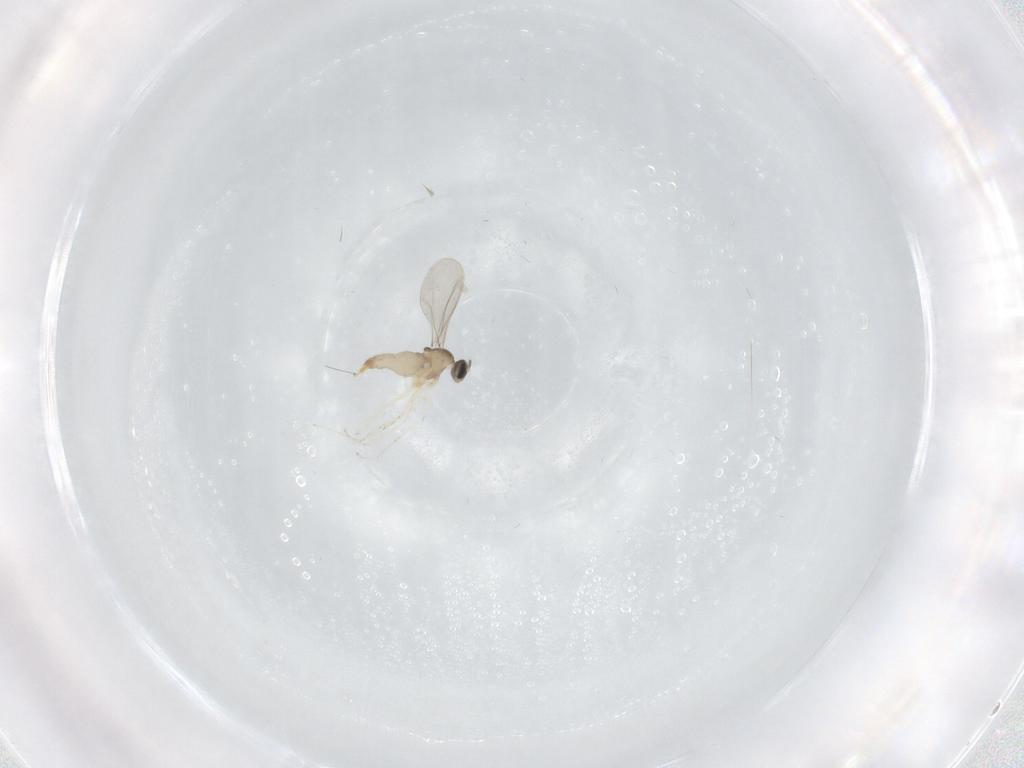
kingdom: Animalia
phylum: Arthropoda
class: Insecta
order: Diptera
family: Cecidomyiidae
